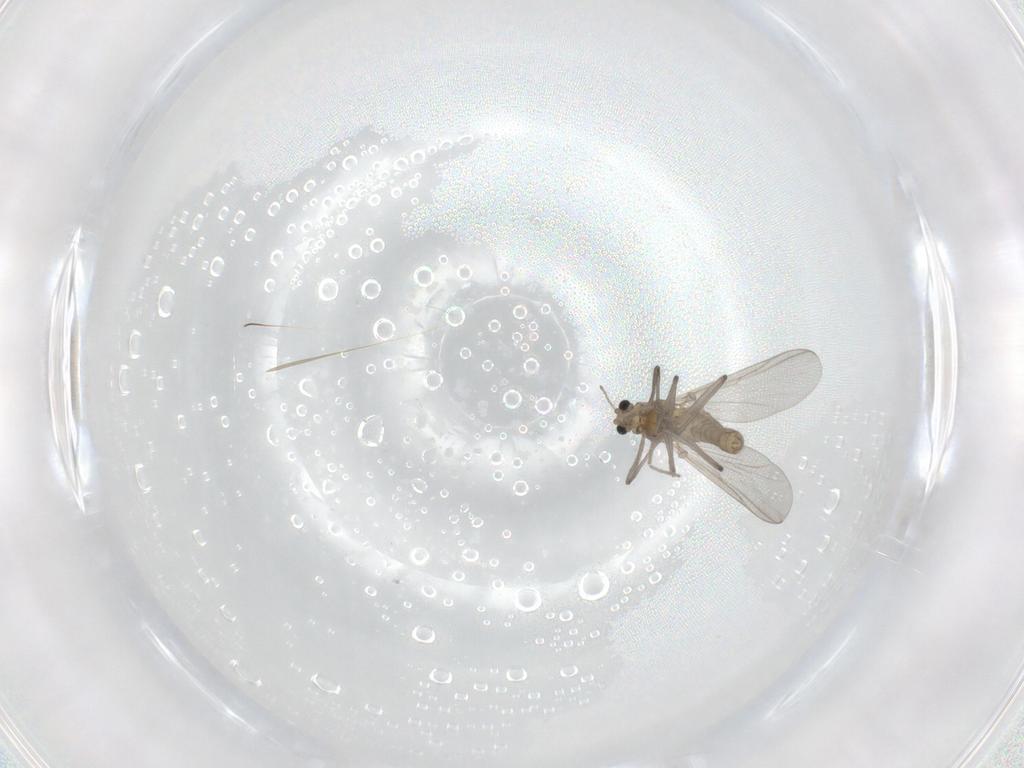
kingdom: Animalia
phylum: Arthropoda
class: Insecta
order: Diptera
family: Chironomidae
